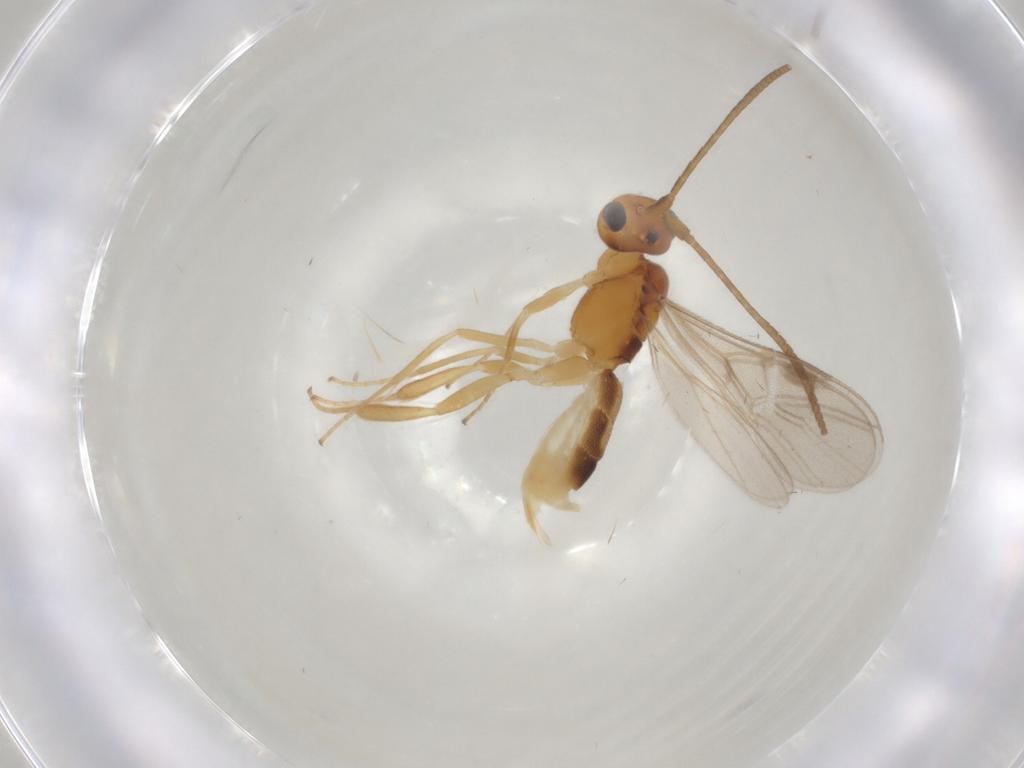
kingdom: Animalia
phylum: Arthropoda
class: Insecta
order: Hymenoptera
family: Braconidae
